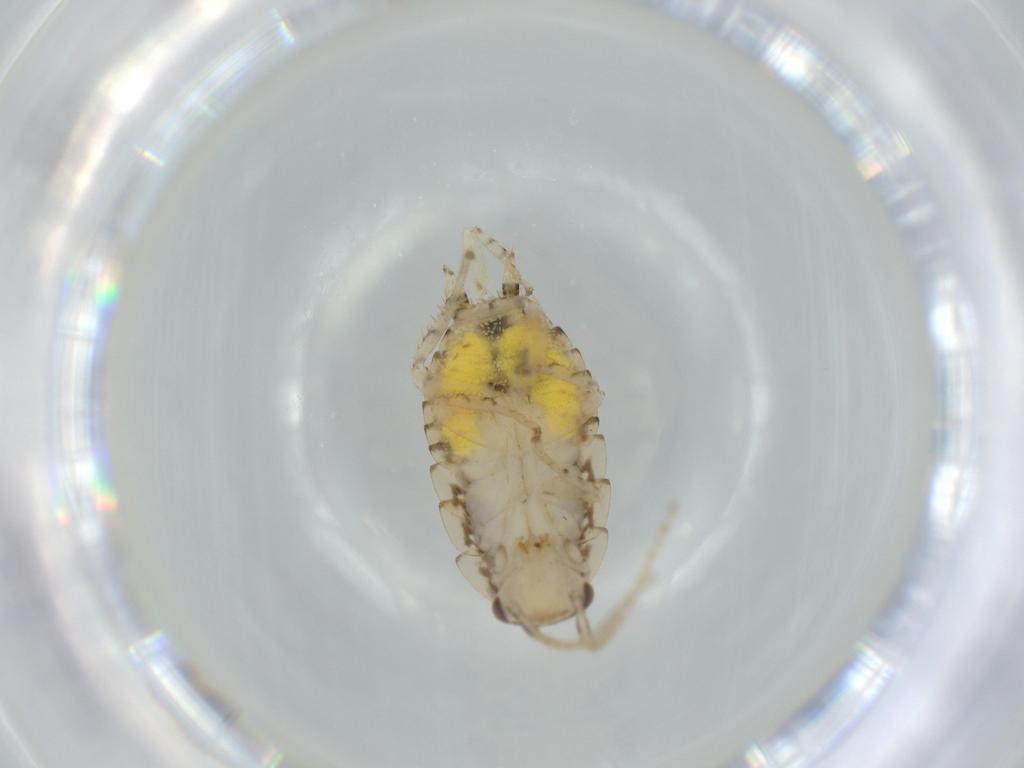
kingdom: Animalia
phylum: Arthropoda
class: Insecta
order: Blattodea
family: Ectobiidae
